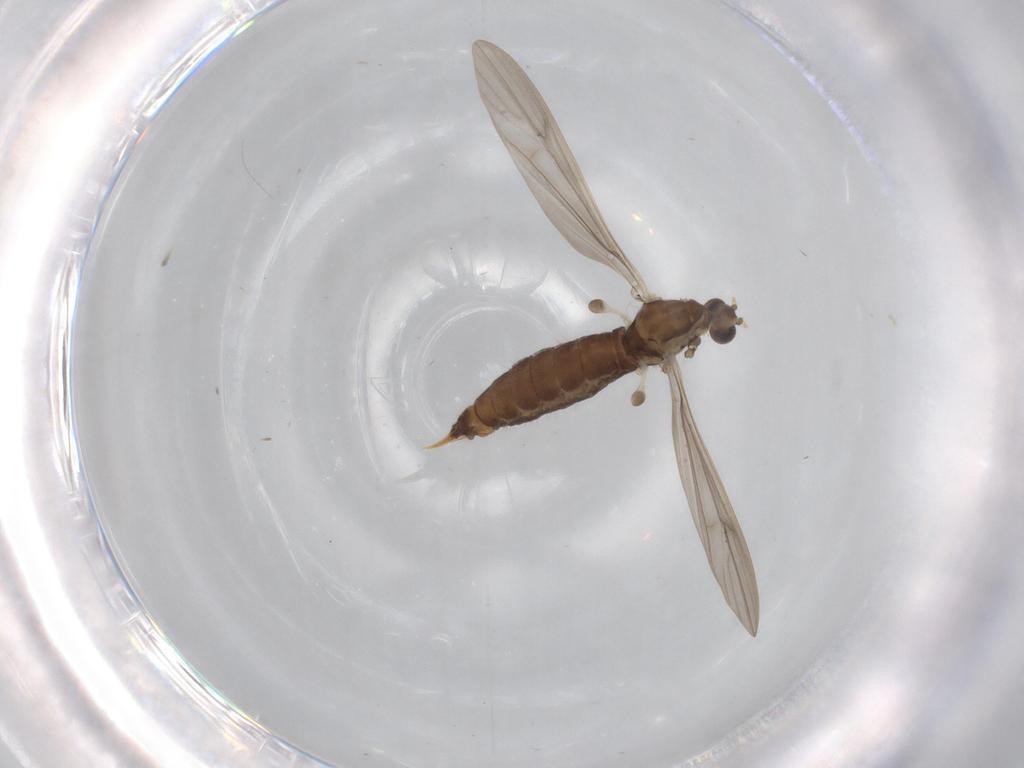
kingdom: Animalia
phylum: Arthropoda
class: Insecta
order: Diptera
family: Limoniidae
